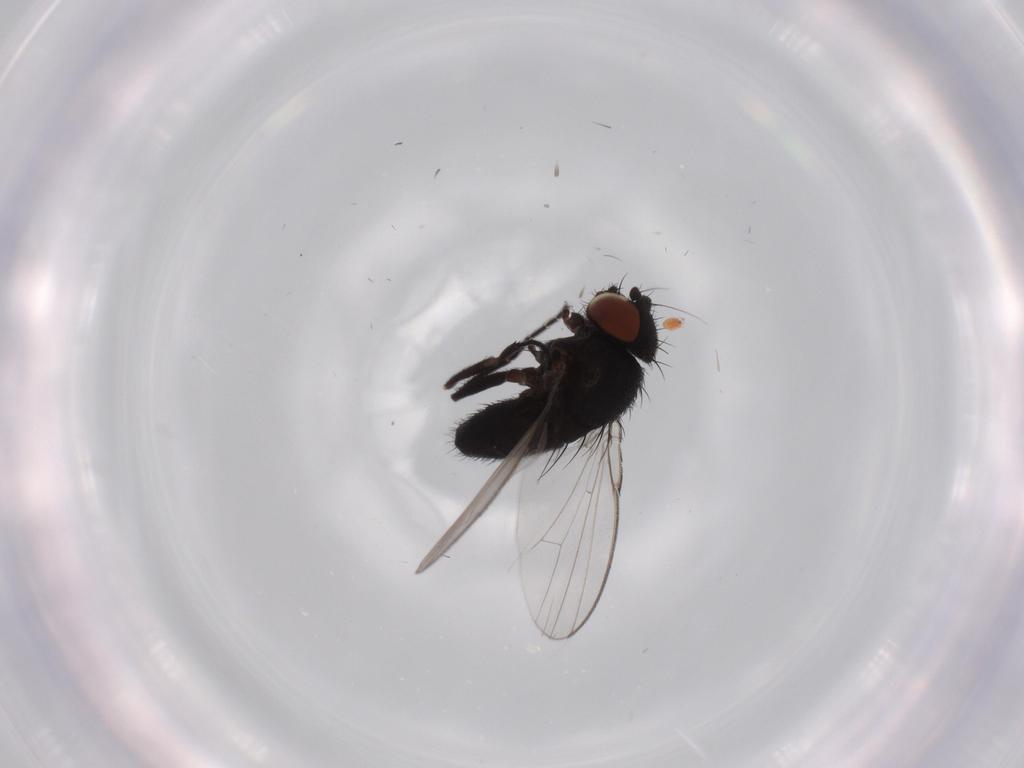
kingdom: Animalia
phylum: Arthropoda
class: Insecta
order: Diptera
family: Milichiidae
